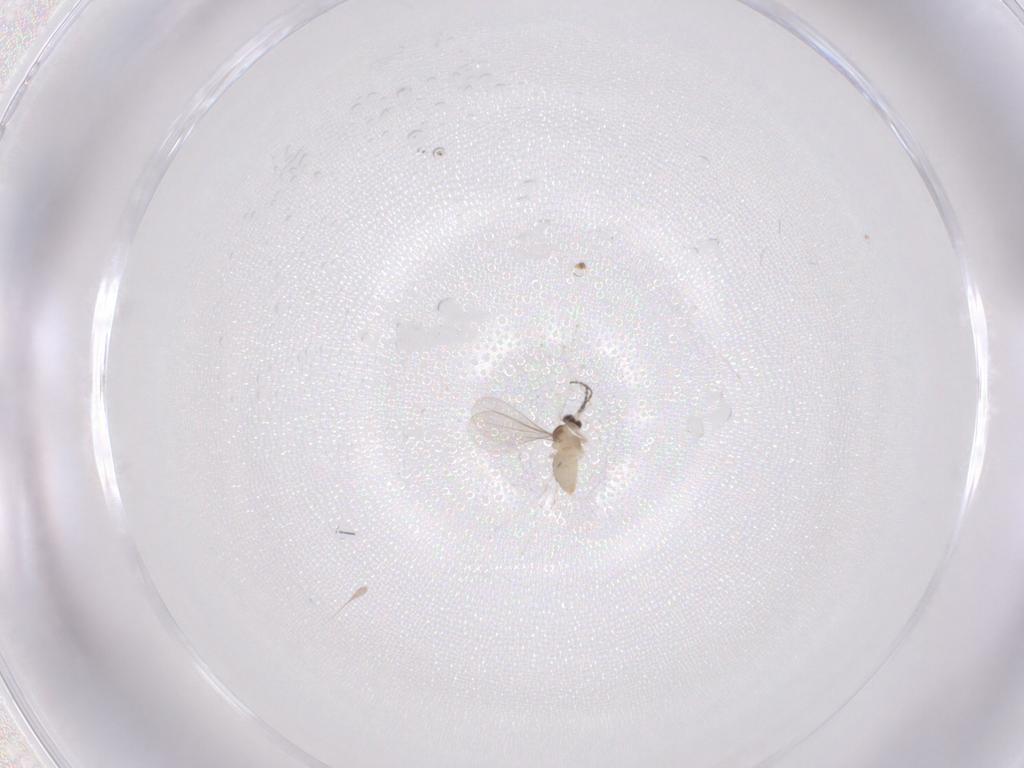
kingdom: Animalia
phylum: Arthropoda
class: Insecta
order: Diptera
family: Cecidomyiidae
